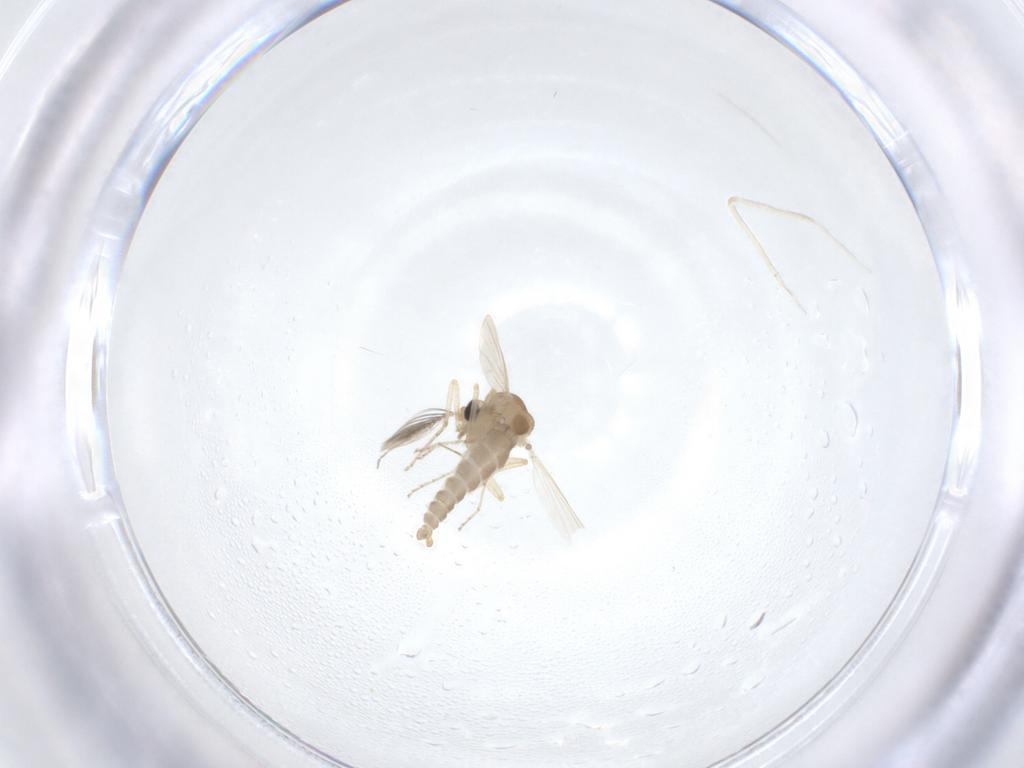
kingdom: Animalia
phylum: Arthropoda
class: Insecta
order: Diptera
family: Ceratopogonidae
